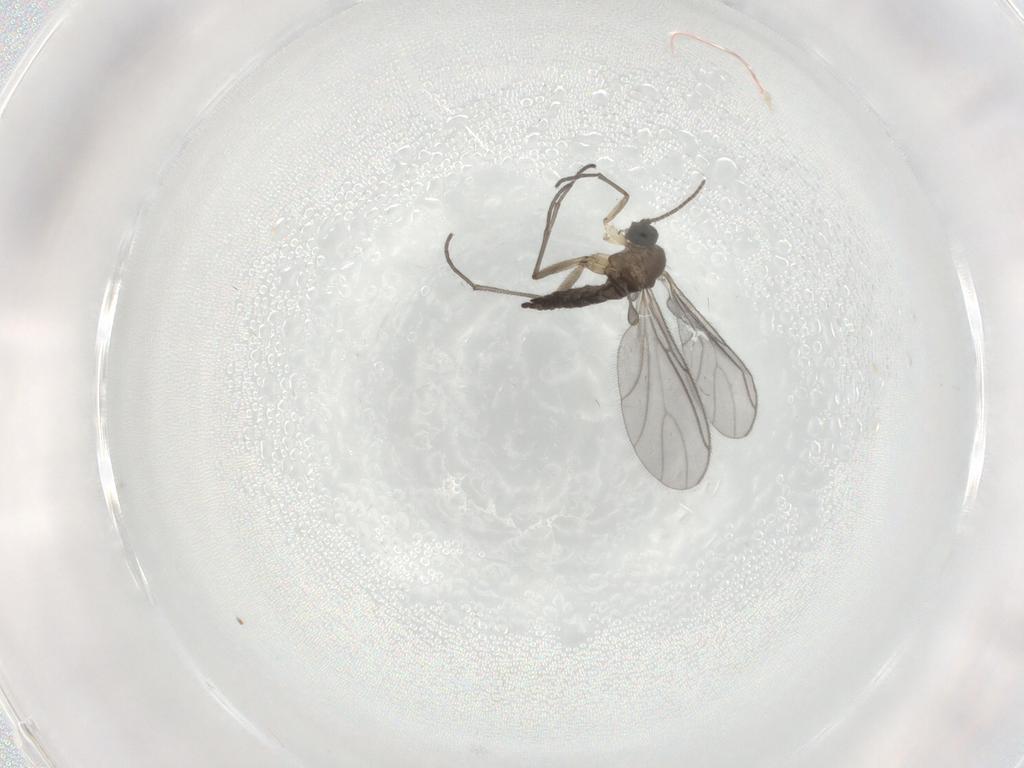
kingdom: Animalia
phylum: Arthropoda
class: Insecta
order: Diptera
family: Sciaridae
